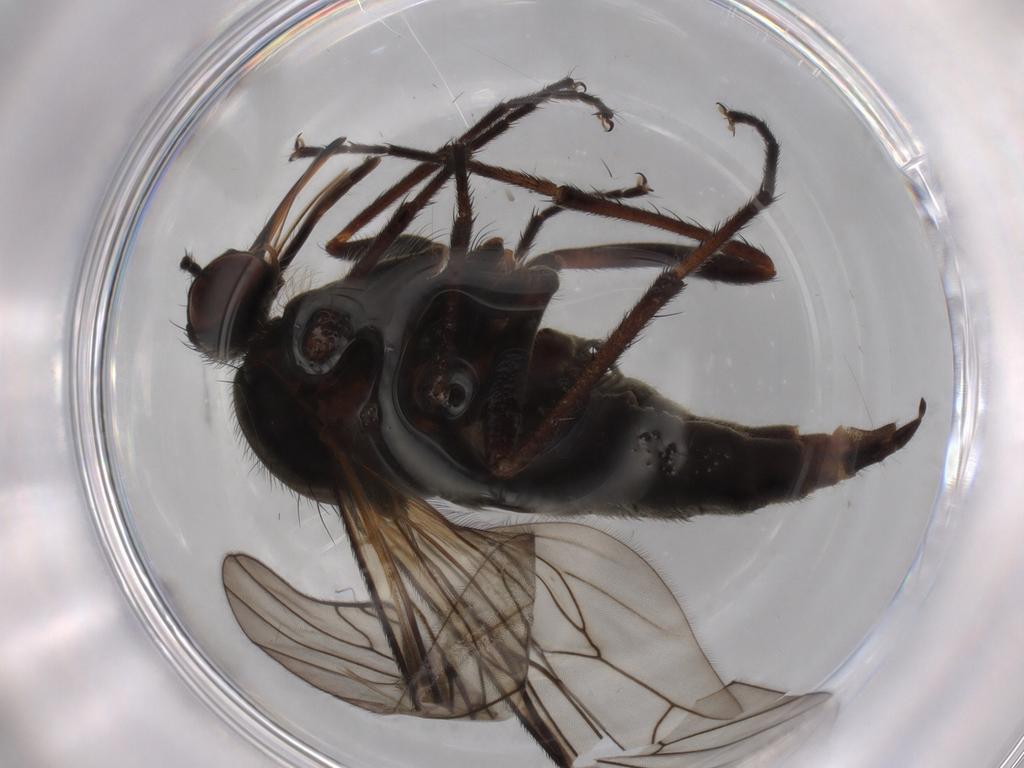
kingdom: Animalia
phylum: Arthropoda
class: Insecta
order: Diptera
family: Empididae
